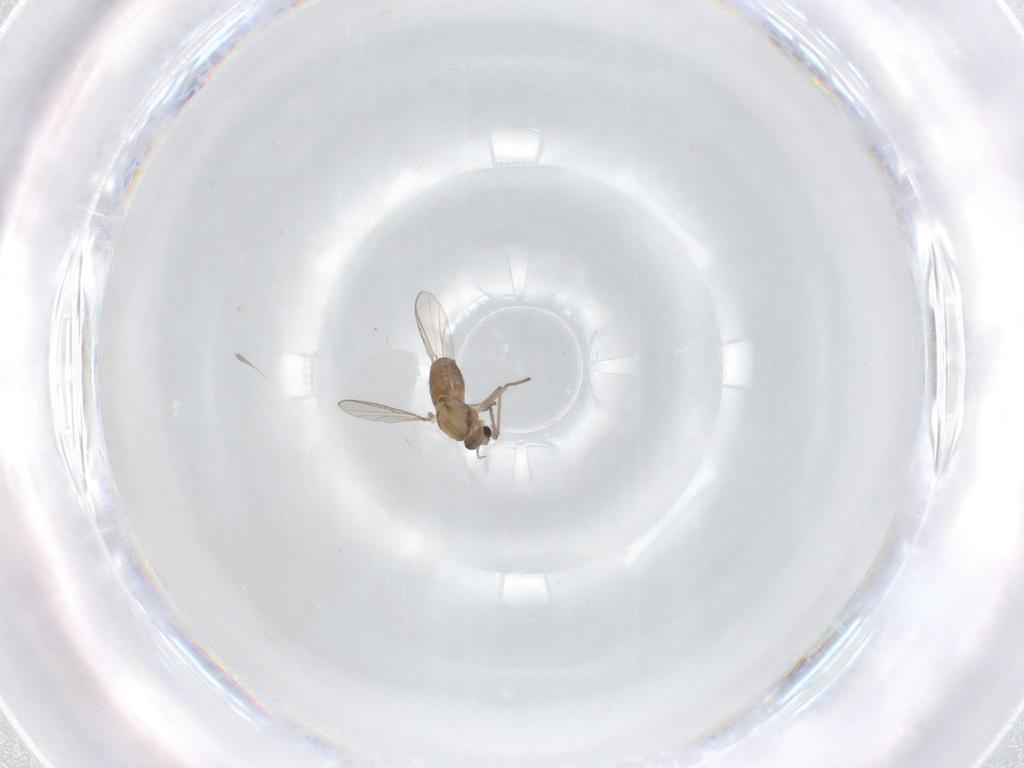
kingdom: Animalia
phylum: Arthropoda
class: Insecta
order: Diptera
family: Chironomidae
